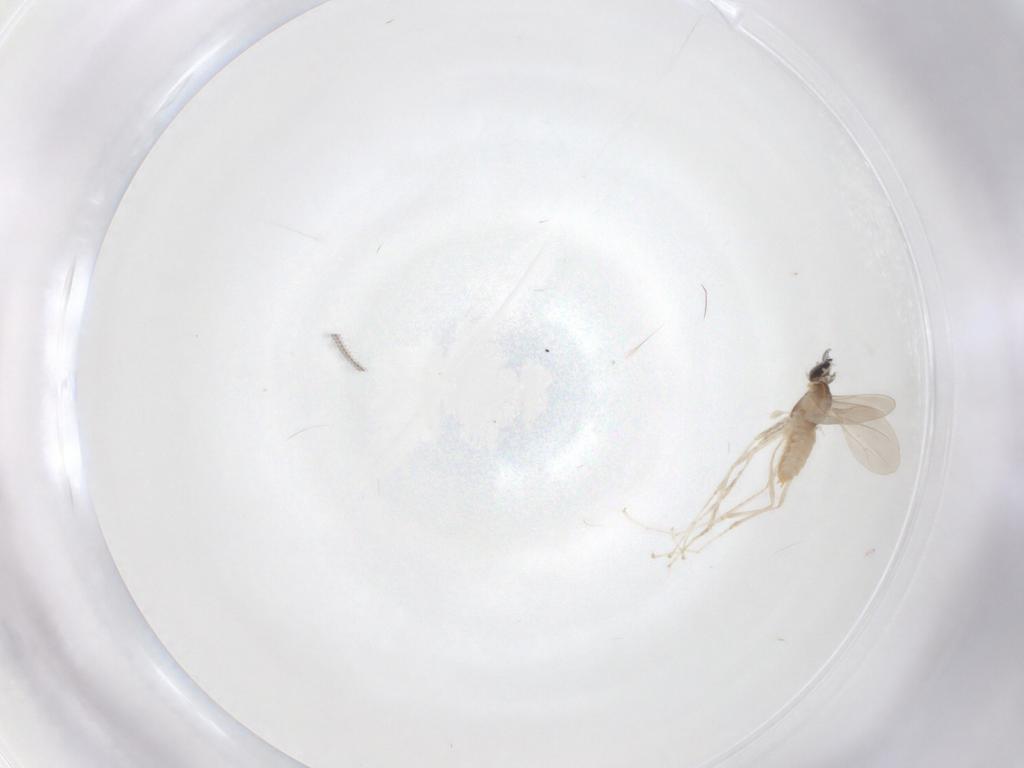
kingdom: Animalia
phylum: Arthropoda
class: Insecta
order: Diptera
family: Ceratopogonidae
